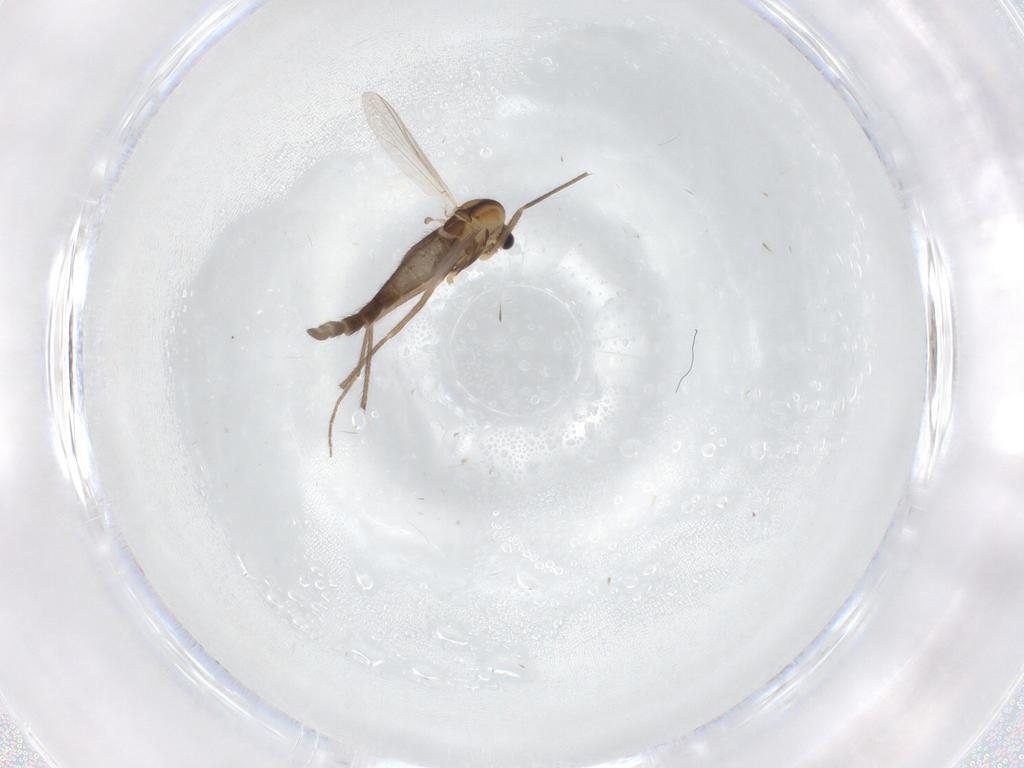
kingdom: Animalia
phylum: Arthropoda
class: Insecta
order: Diptera
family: Chironomidae
